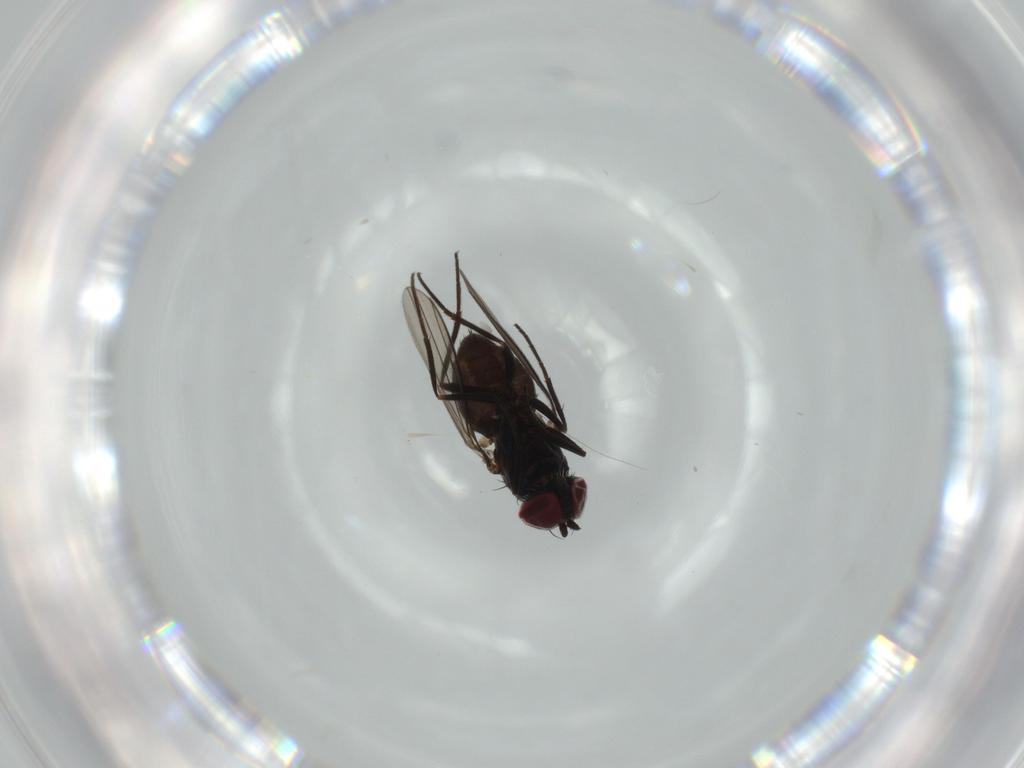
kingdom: Animalia
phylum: Arthropoda
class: Insecta
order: Diptera
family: Dolichopodidae
